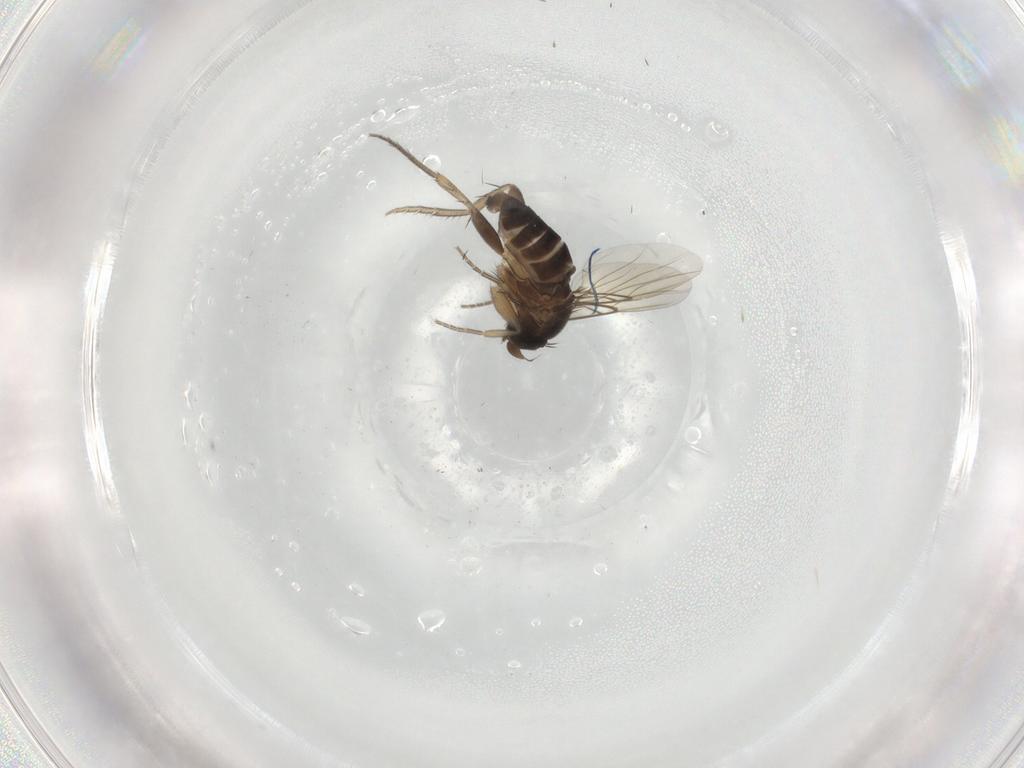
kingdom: Animalia
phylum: Arthropoda
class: Insecta
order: Diptera
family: Phoridae
